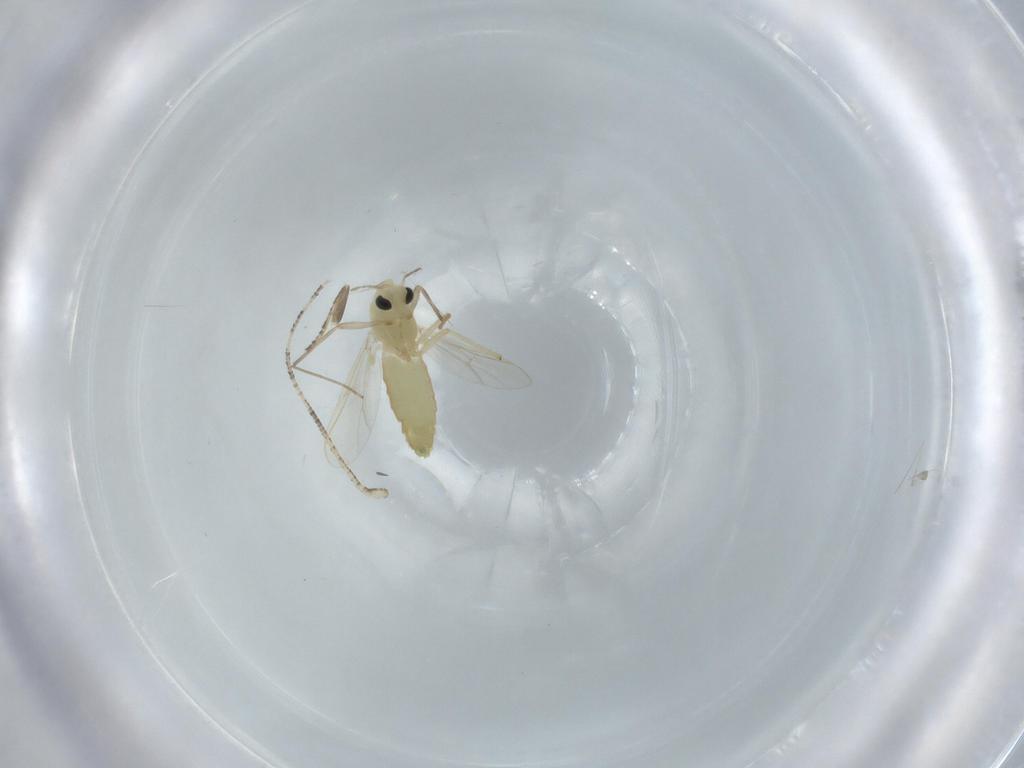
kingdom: Animalia
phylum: Arthropoda
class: Insecta
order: Diptera
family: Chironomidae
